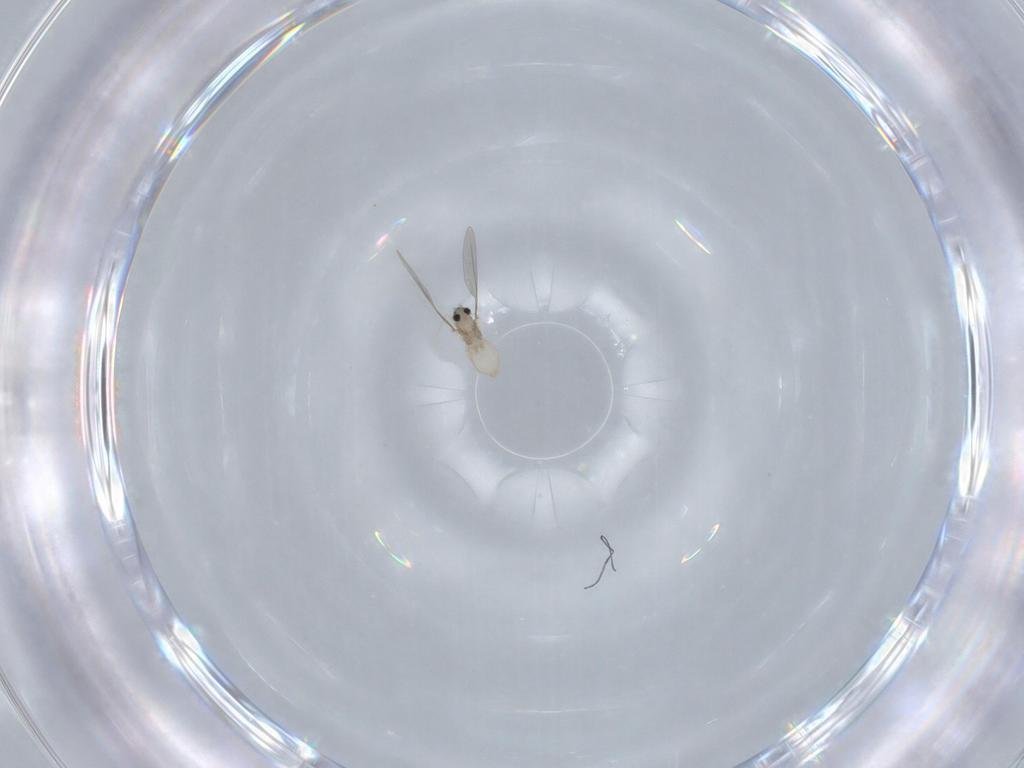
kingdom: Animalia
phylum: Arthropoda
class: Insecta
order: Diptera
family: Cecidomyiidae
